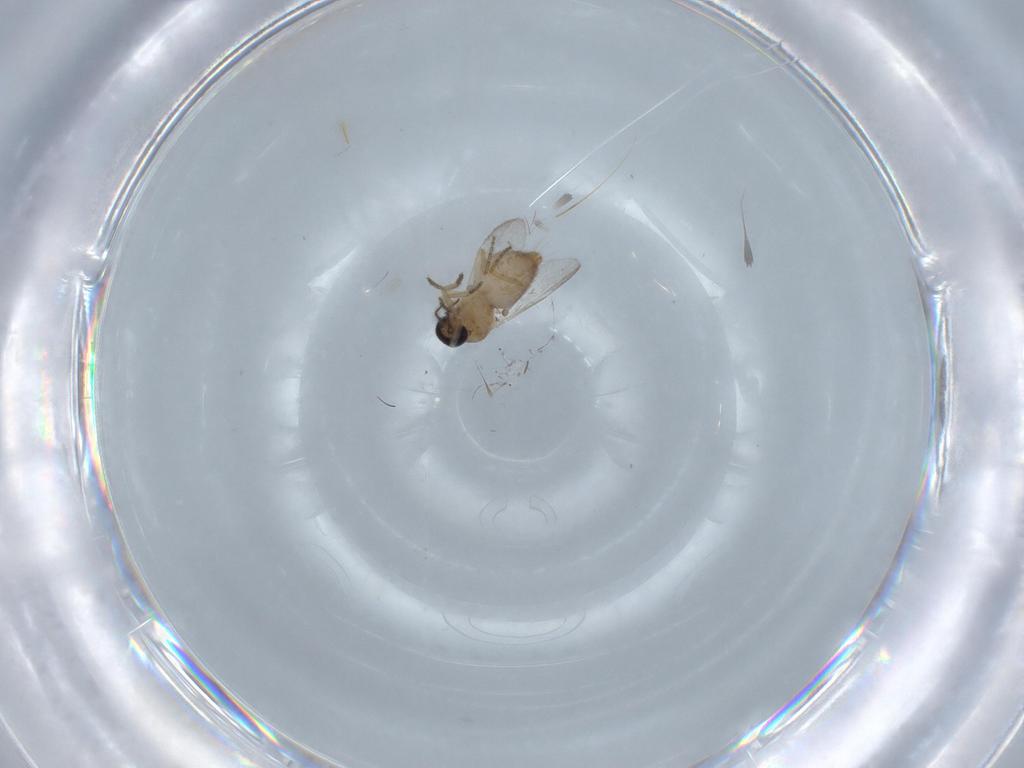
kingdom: Animalia
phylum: Arthropoda
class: Insecta
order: Diptera
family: Ceratopogonidae
